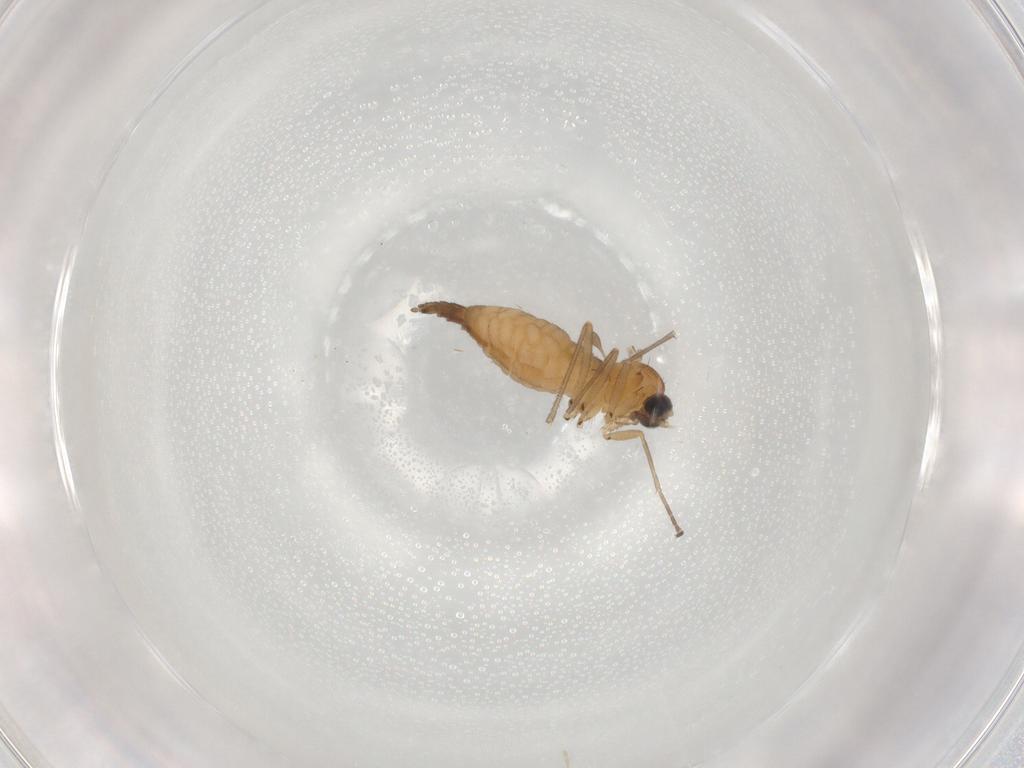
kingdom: Animalia
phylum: Arthropoda
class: Insecta
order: Diptera
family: Sciaridae
